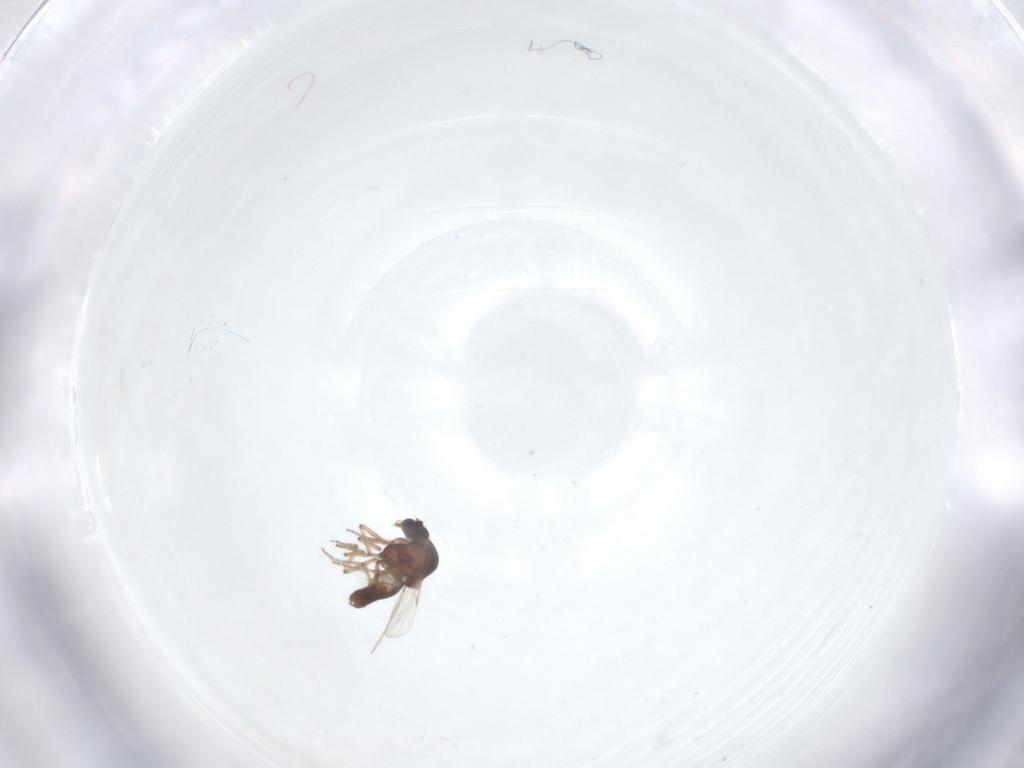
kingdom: Animalia
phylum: Arthropoda
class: Insecta
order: Diptera
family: Ceratopogonidae
